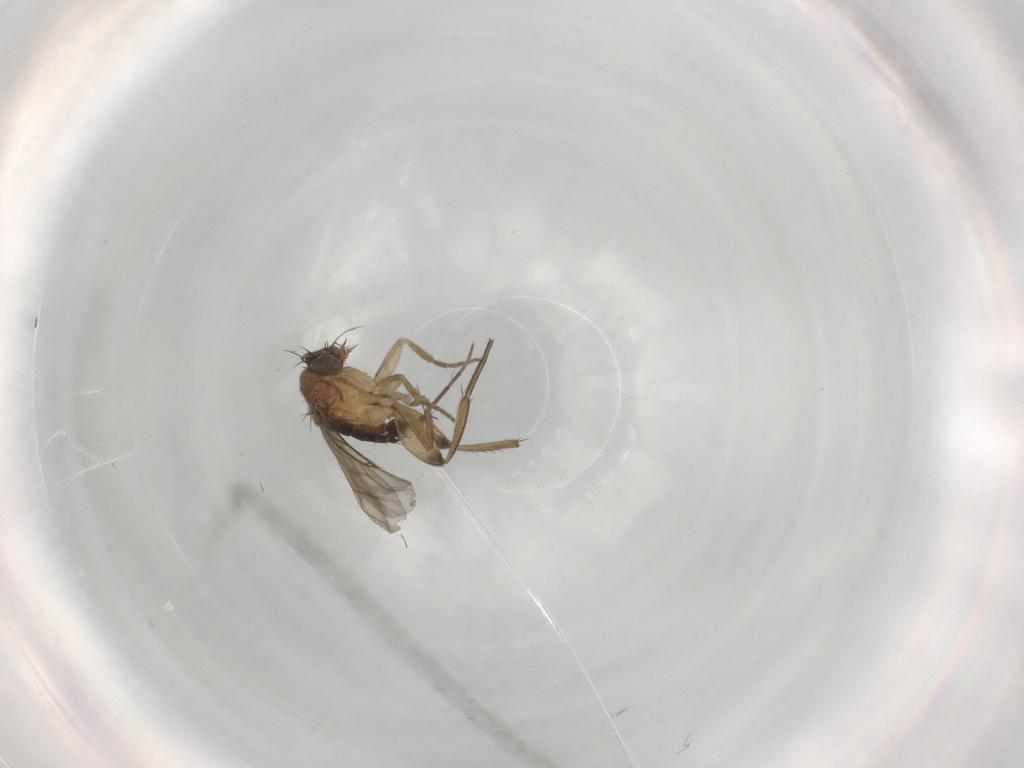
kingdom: Animalia
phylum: Arthropoda
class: Insecta
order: Diptera
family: Phoridae
